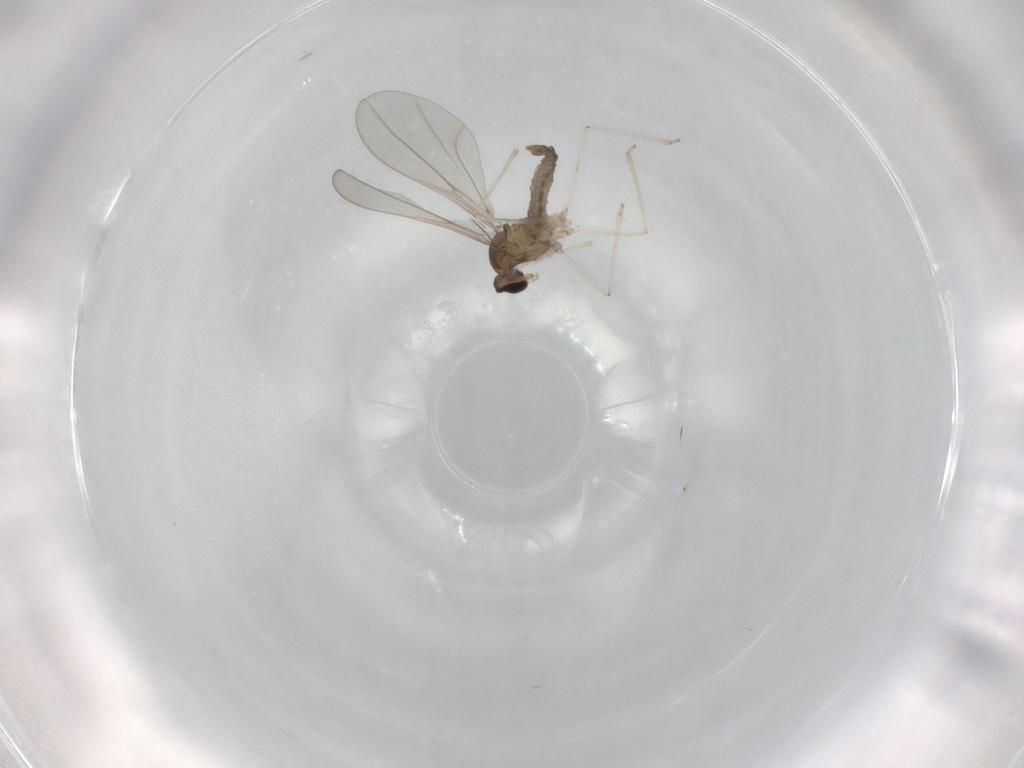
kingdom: Animalia
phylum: Arthropoda
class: Insecta
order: Diptera
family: Ceratopogonidae
